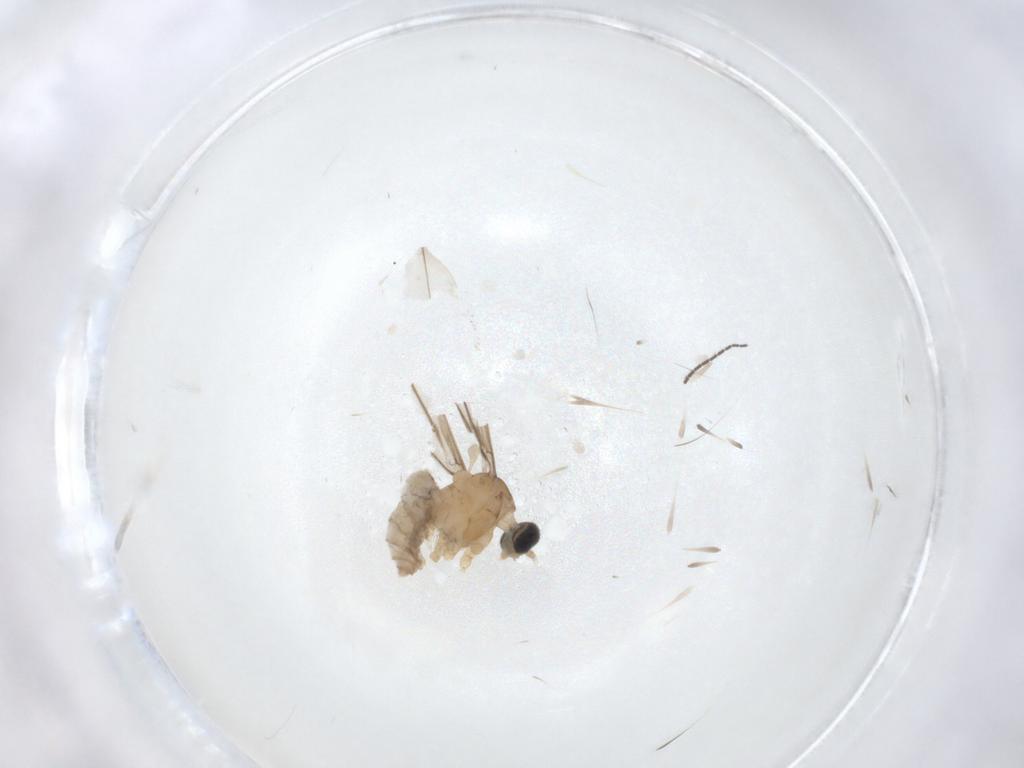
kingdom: Animalia
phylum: Arthropoda
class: Insecta
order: Diptera
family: Cecidomyiidae
